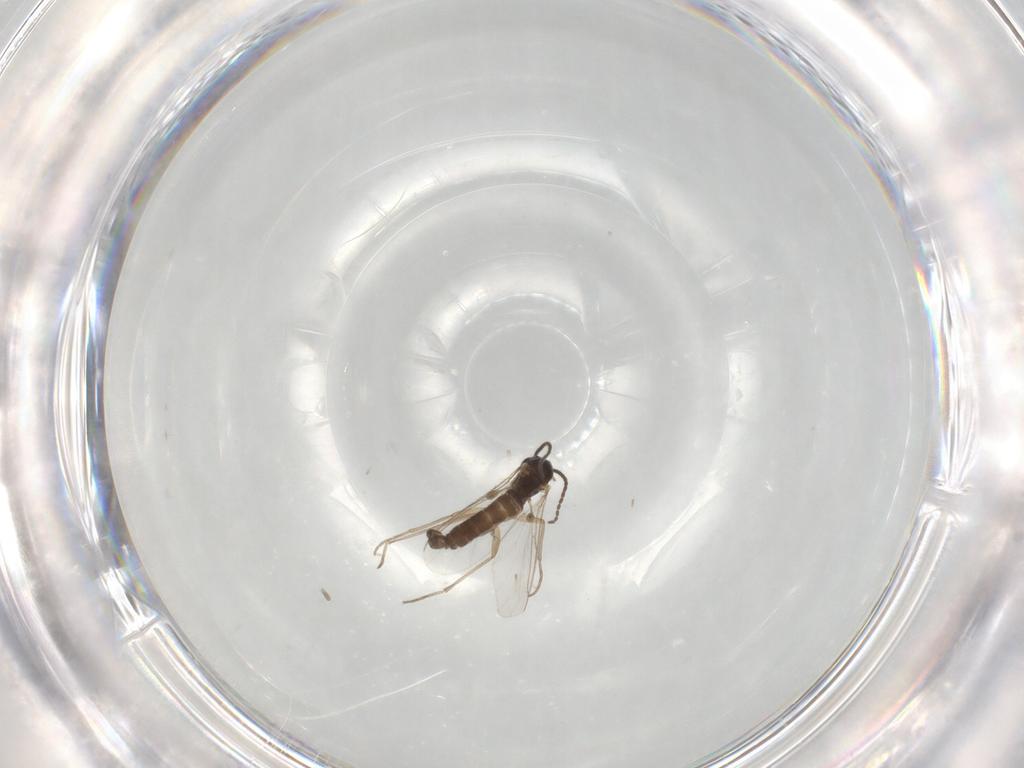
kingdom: Animalia
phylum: Arthropoda
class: Insecta
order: Diptera
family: Sciaridae
